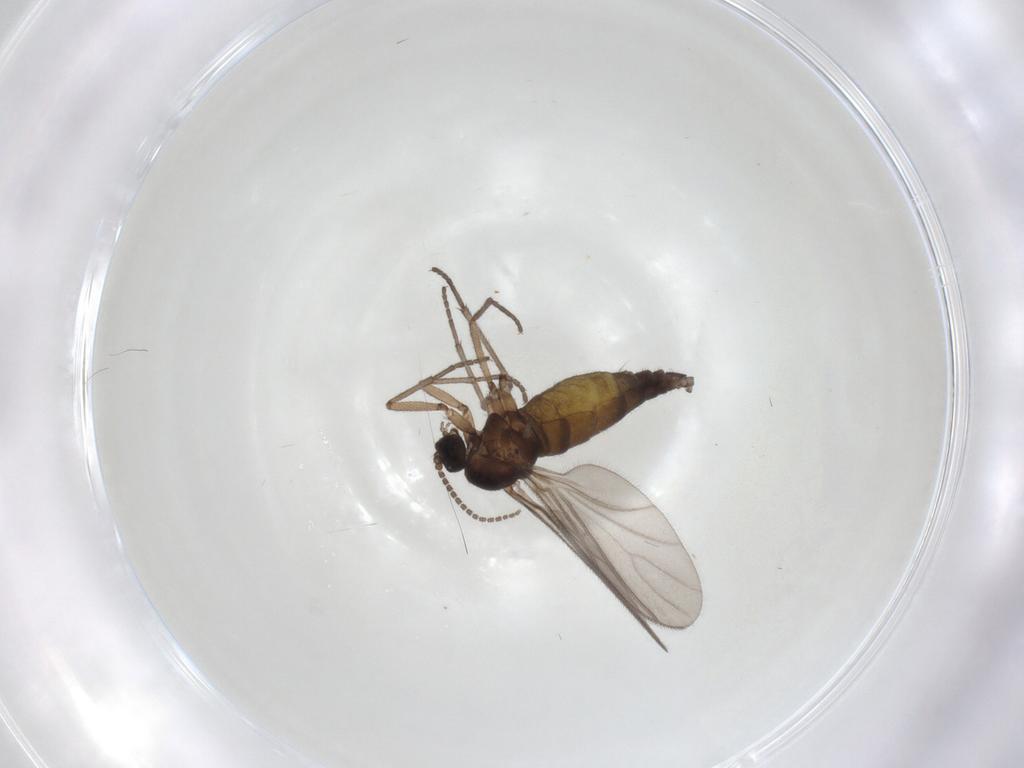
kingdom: Animalia
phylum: Arthropoda
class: Insecta
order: Diptera
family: Sciaridae
